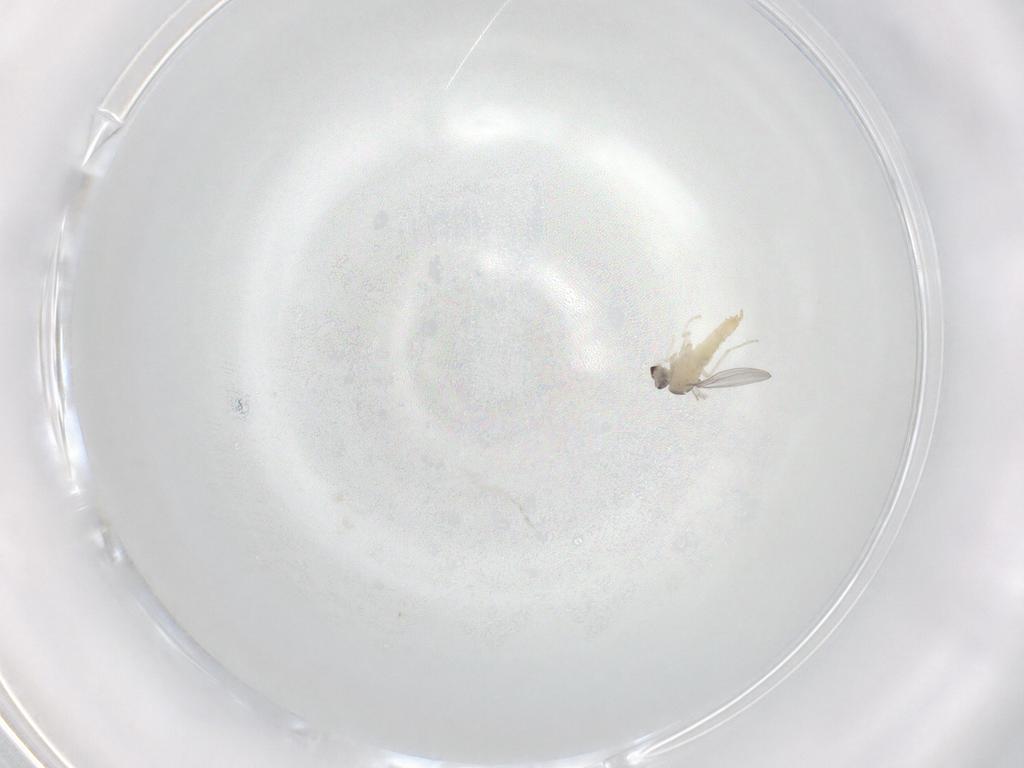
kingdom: Animalia
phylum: Arthropoda
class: Insecta
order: Diptera
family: Cecidomyiidae
